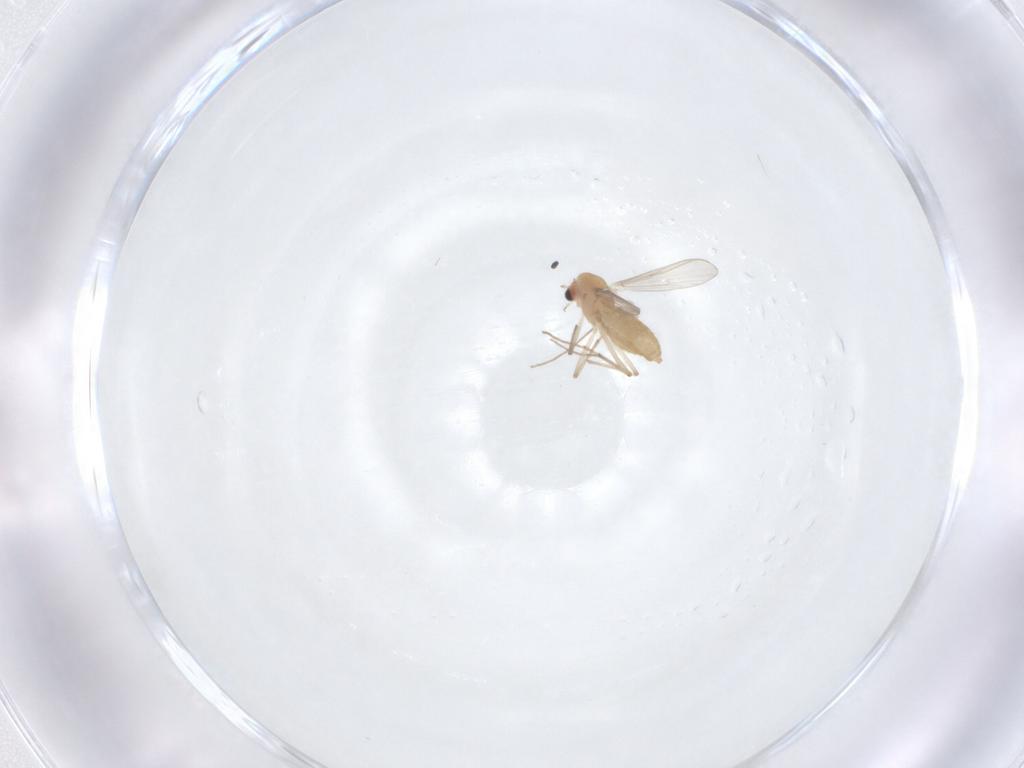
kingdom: Animalia
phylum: Arthropoda
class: Insecta
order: Diptera
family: Chironomidae
